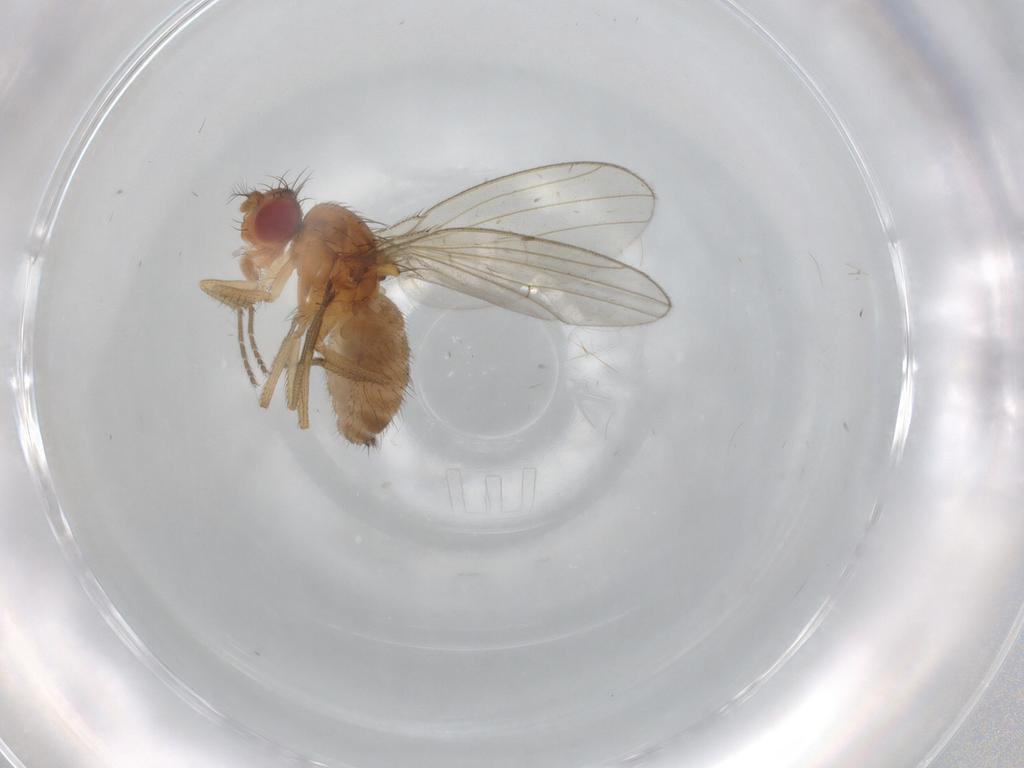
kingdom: Animalia
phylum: Arthropoda
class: Insecta
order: Diptera
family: Drosophilidae
